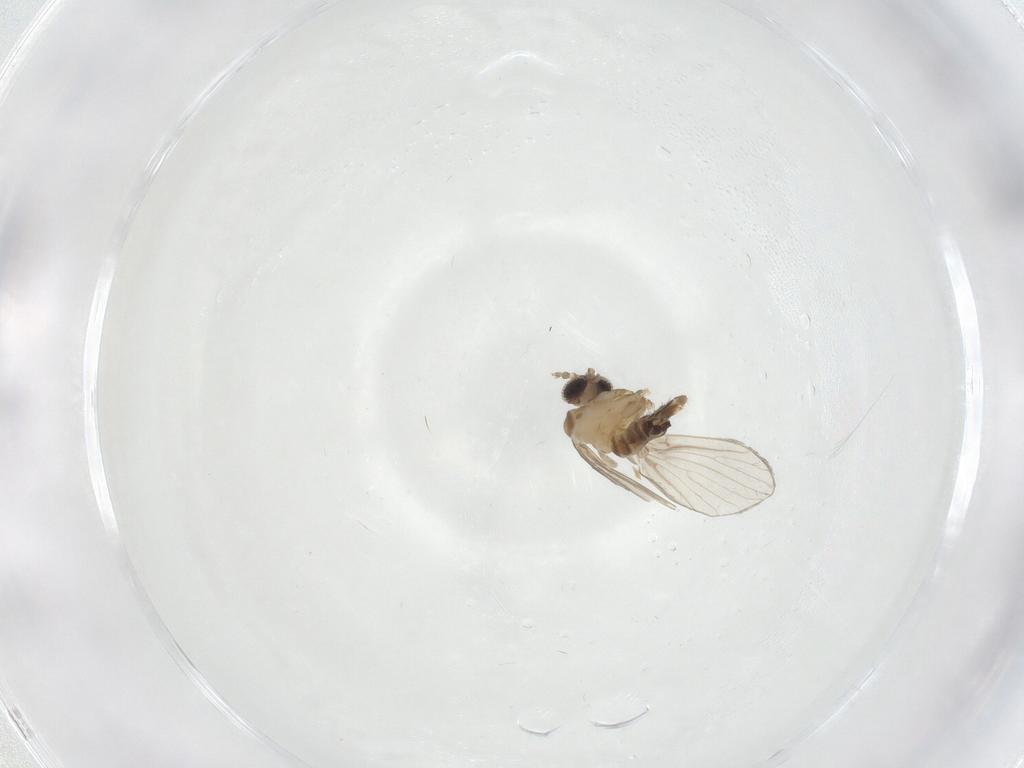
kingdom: Animalia
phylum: Arthropoda
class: Insecta
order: Diptera
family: Psychodidae
